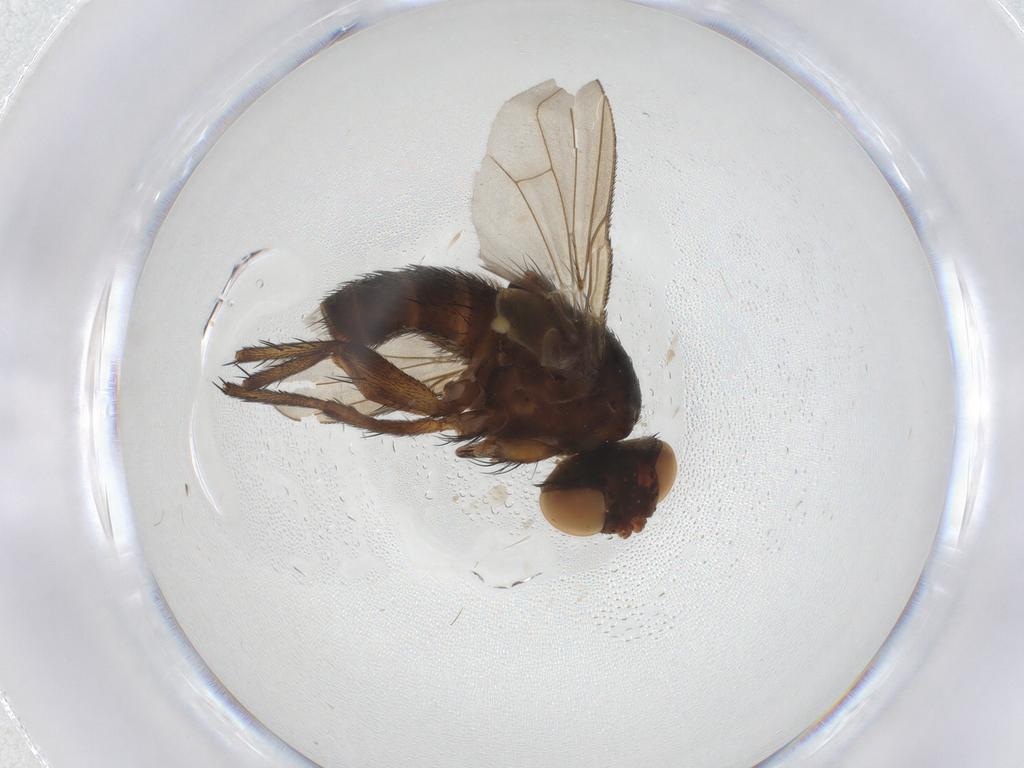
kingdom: Animalia
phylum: Arthropoda
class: Insecta
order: Diptera
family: Tachinidae
